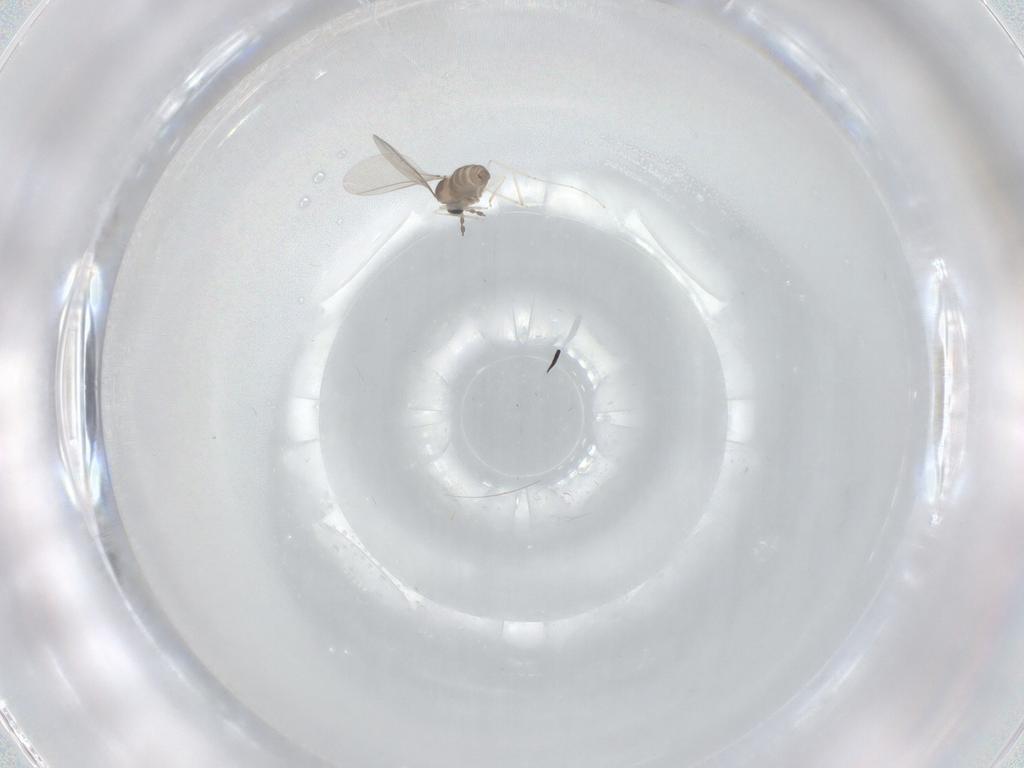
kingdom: Animalia
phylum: Arthropoda
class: Insecta
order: Diptera
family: Cecidomyiidae
